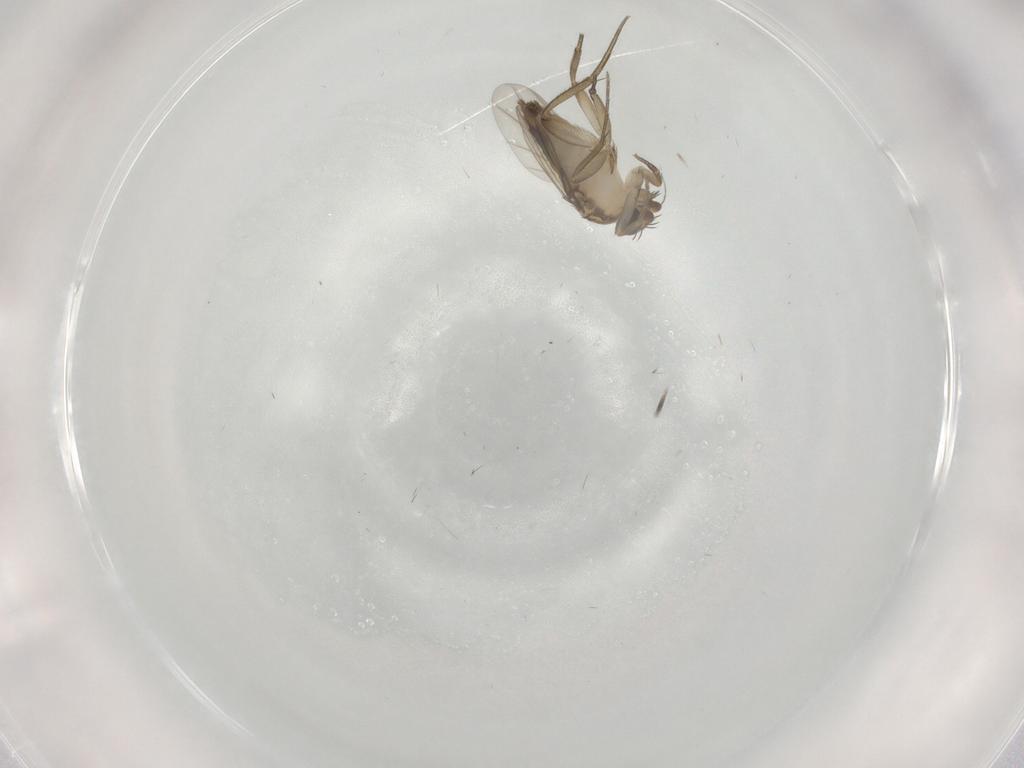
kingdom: Animalia
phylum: Arthropoda
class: Insecta
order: Diptera
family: Phoridae
